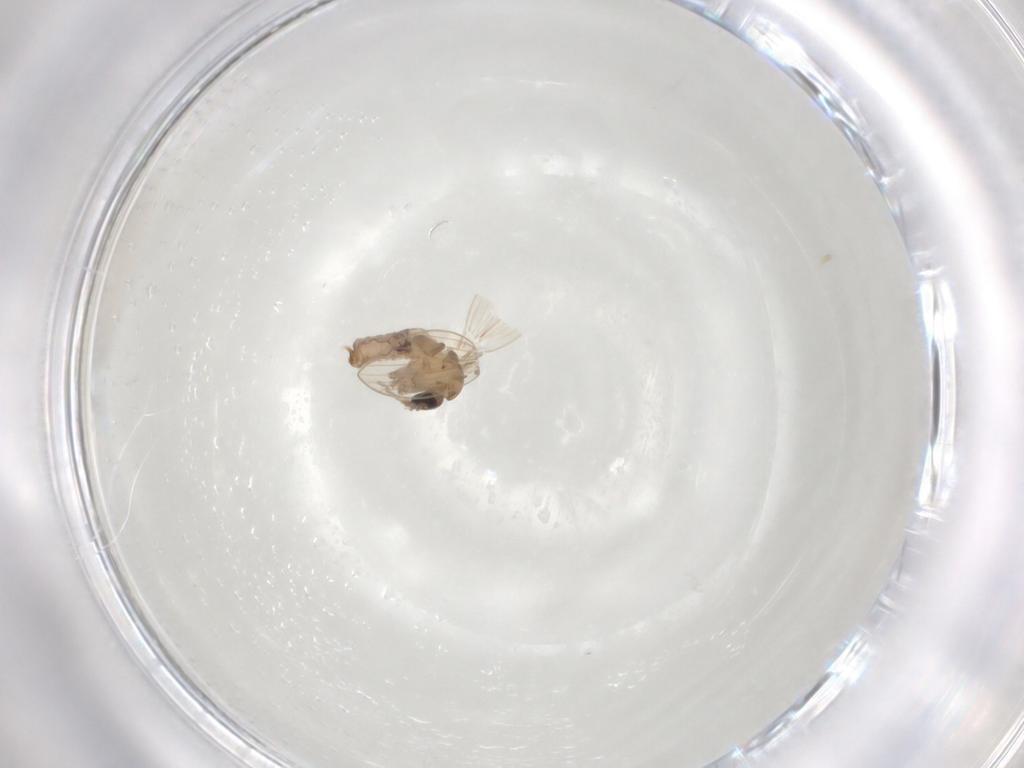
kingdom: Animalia
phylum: Arthropoda
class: Insecta
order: Diptera
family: Psychodidae
